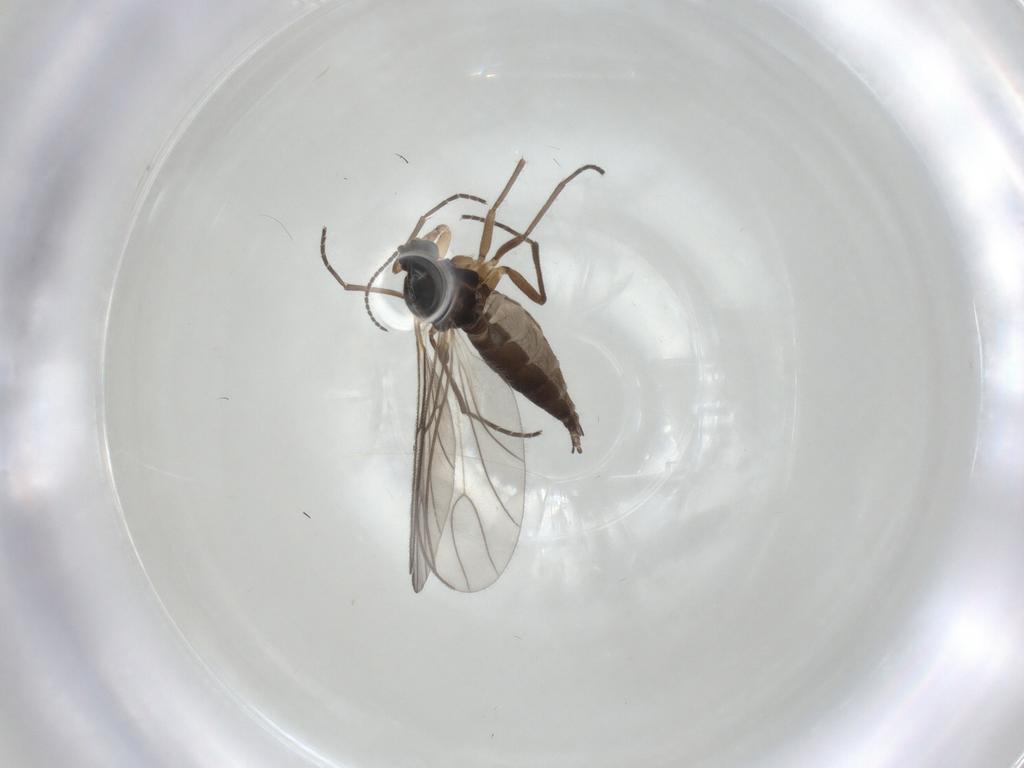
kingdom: Animalia
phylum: Arthropoda
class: Insecta
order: Diptera
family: Sciaridae
